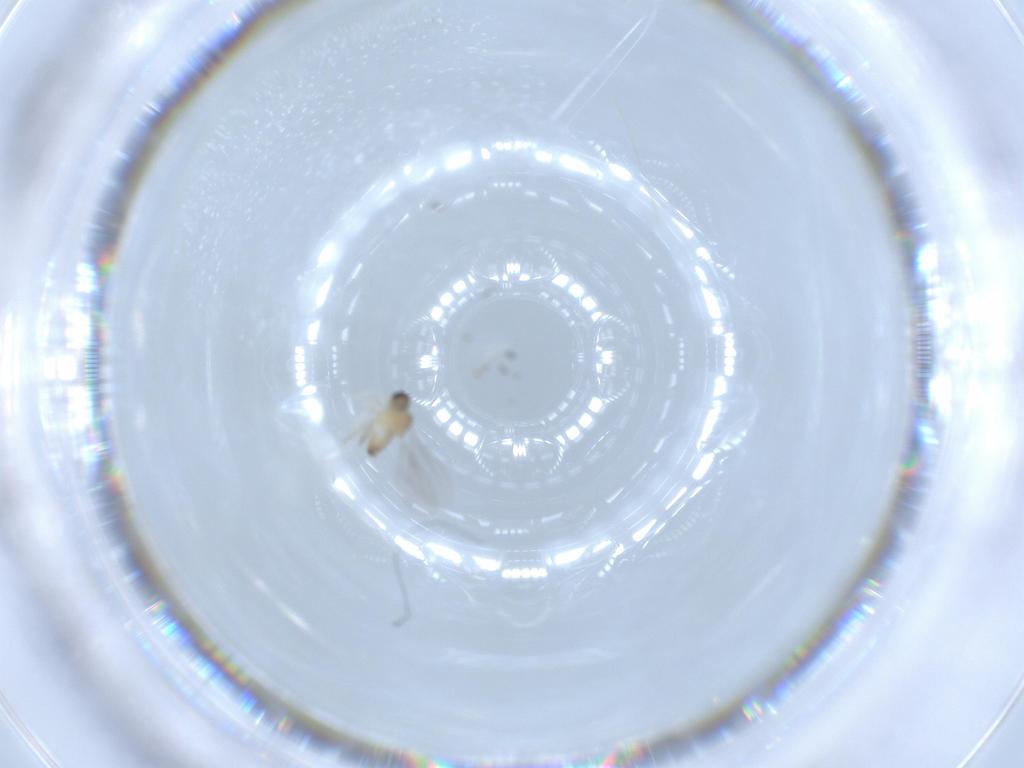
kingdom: Animalia
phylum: Arthropoda
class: Insecta
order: Diptera
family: Cecidomyiidae
